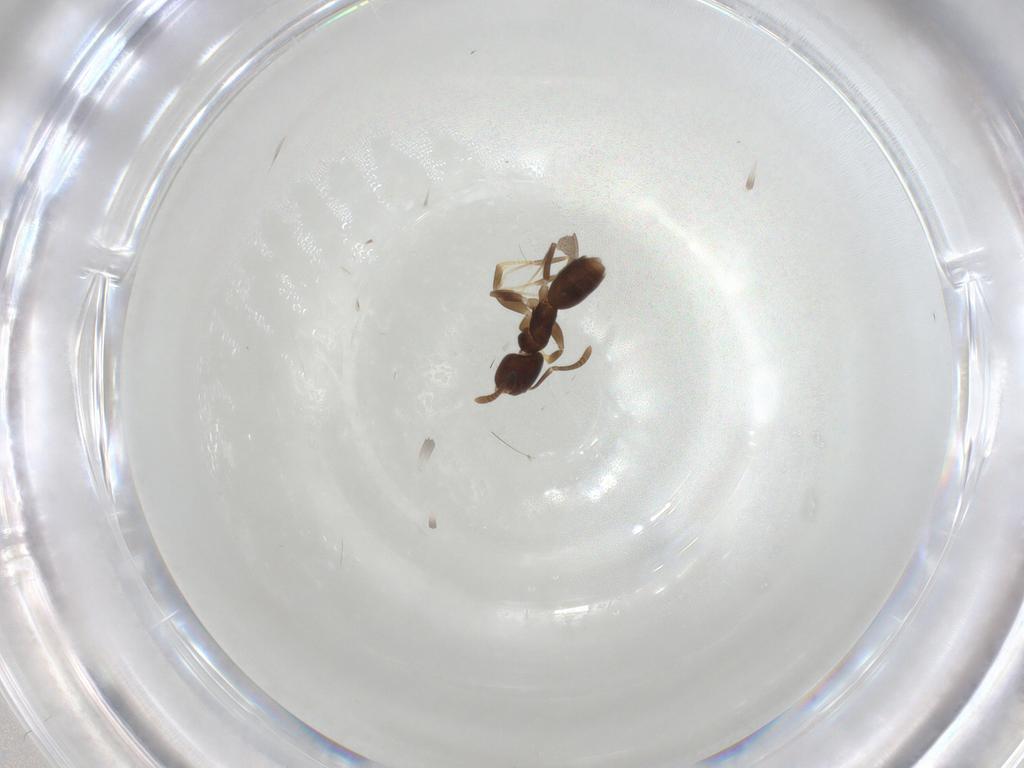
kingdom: Animalia
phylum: Arthropoda
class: Insecta
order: Hymenoptera
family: Formicidae
